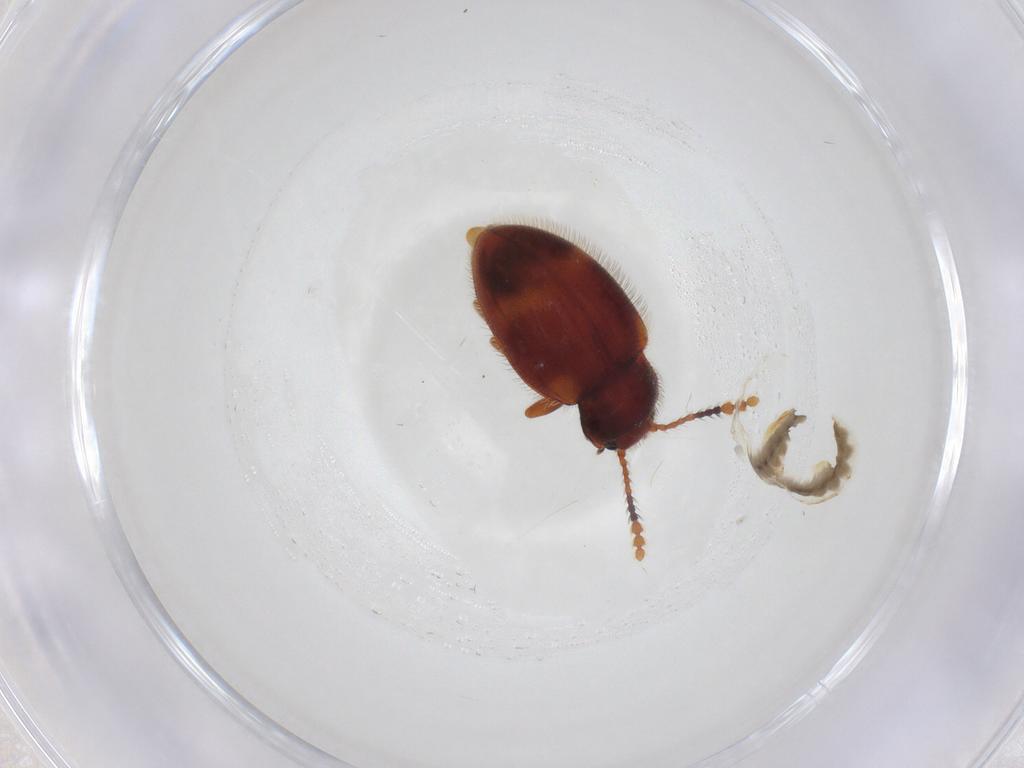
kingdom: Animalia
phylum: Arthropoda
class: Insecta
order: Coleoptera
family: Erotylidae
